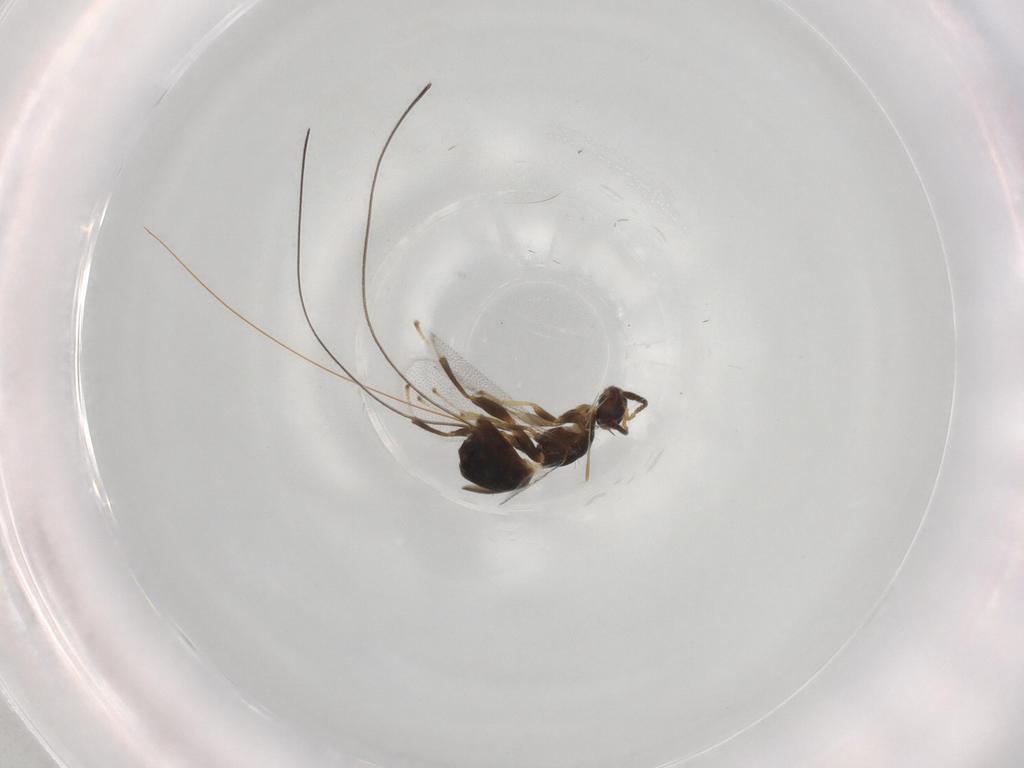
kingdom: Animalia
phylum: Arthropoda
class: Insecta
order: Hymenoptera
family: Torymidae
